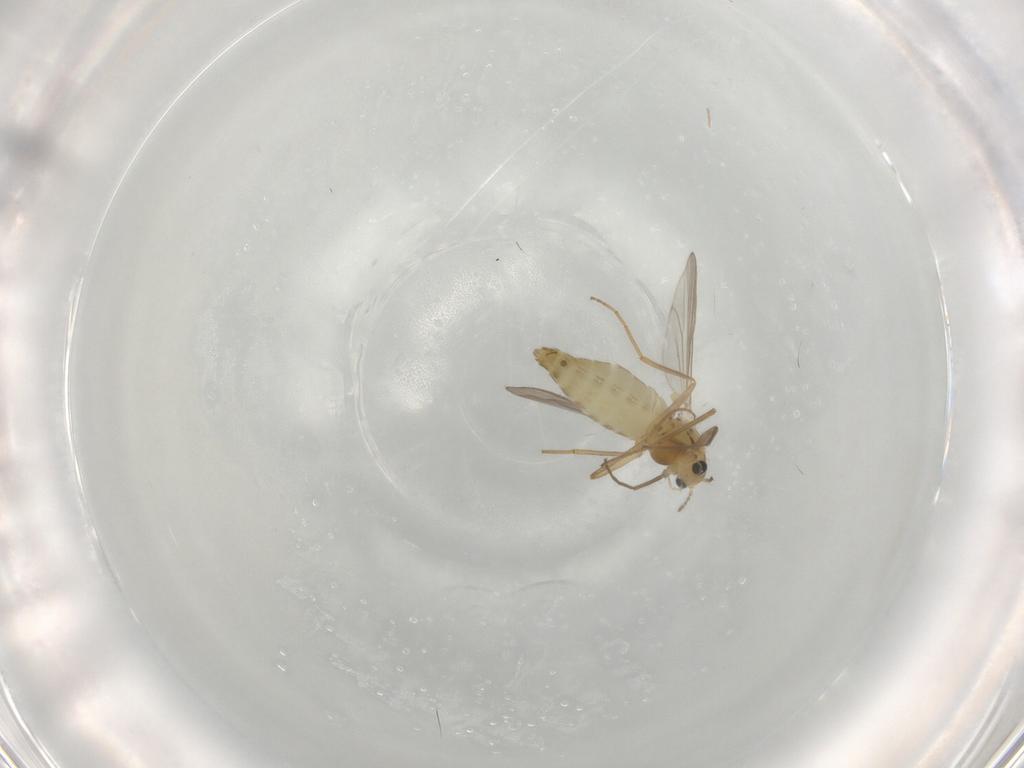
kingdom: Animalia
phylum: Arthropoda
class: Insecta
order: Diptera
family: Chironomidae
